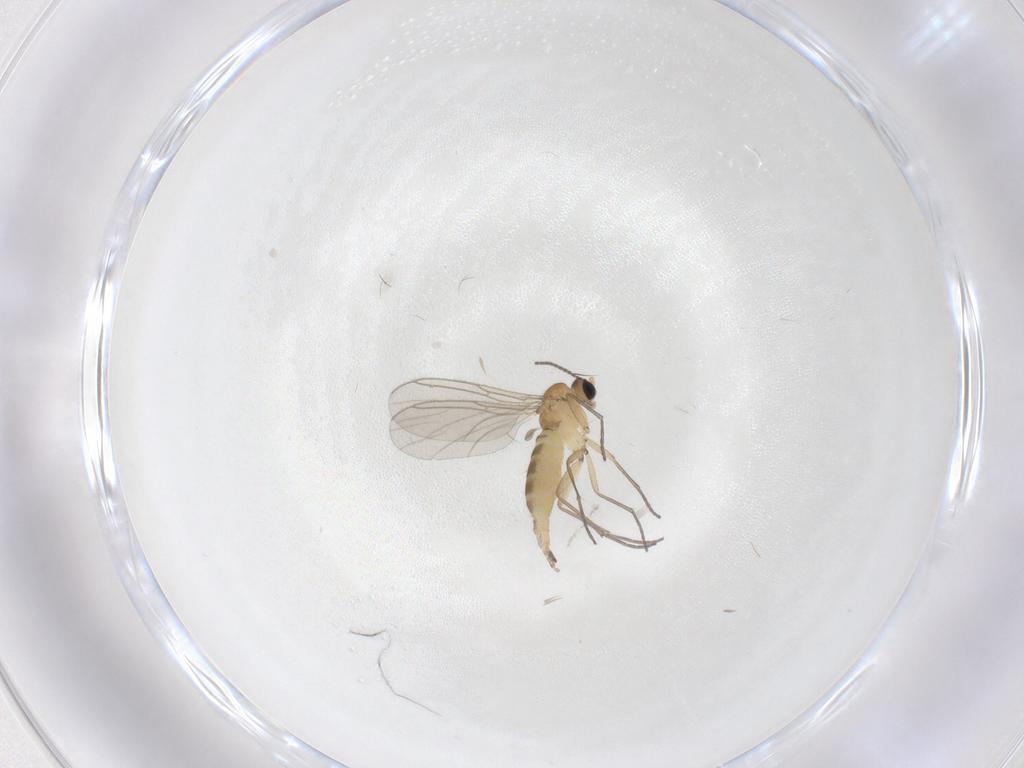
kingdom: Animalia
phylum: Arthropoda
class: Insecta
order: Diptera
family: Sciaridae
